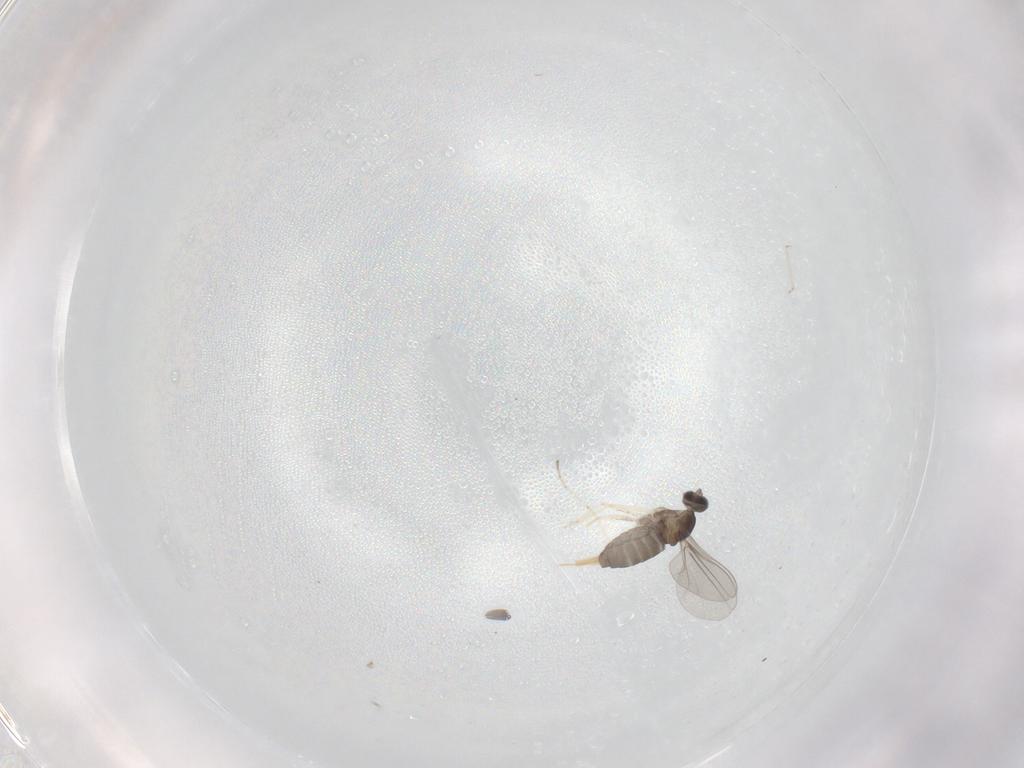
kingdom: Animalia
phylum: Arthropoda
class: Insecta
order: Diptera
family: Cecidomyiidae
